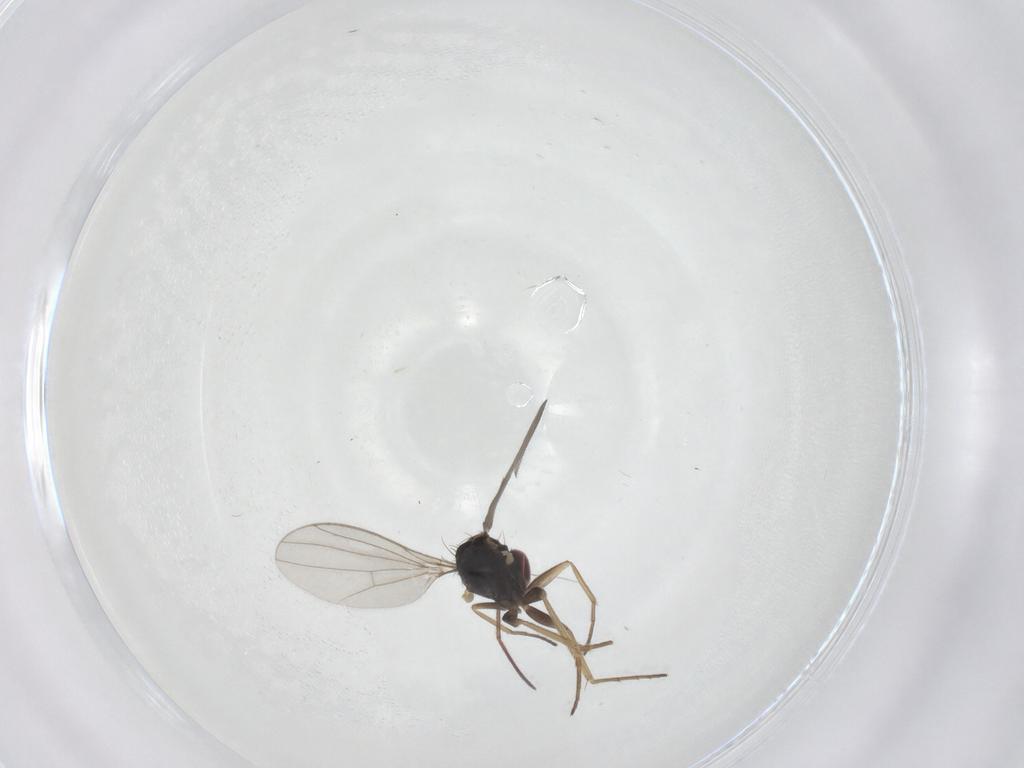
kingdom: Animalia
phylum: Arthropoda
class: Insecta
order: Diptera
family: Dolichopodidae
